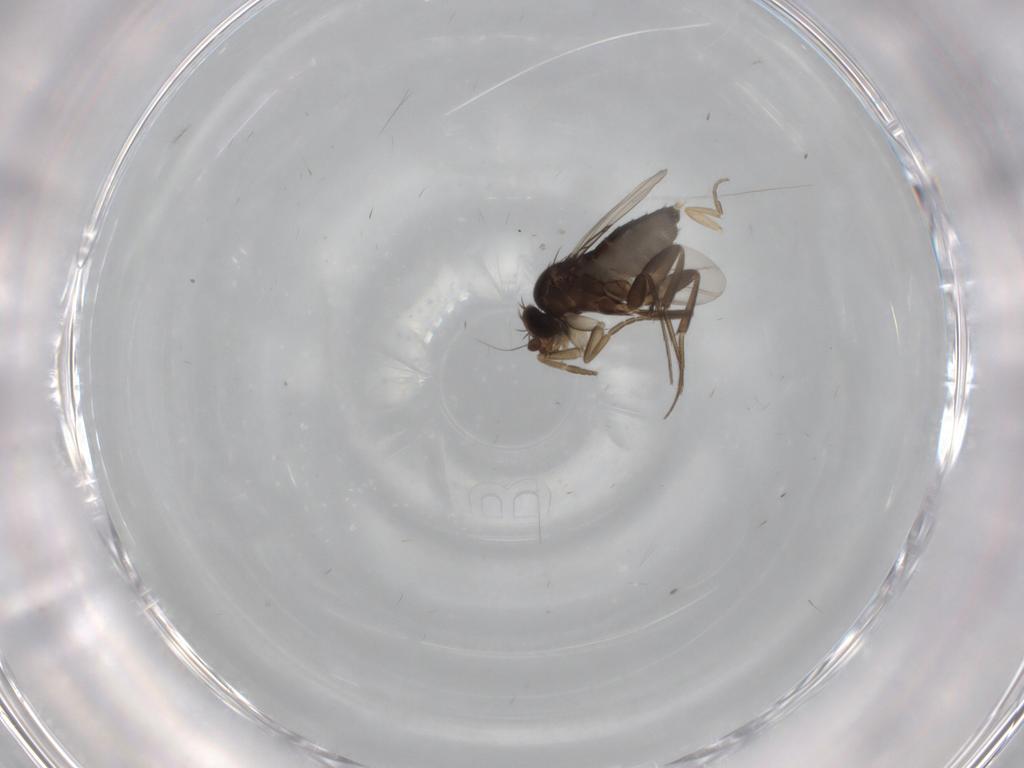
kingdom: Animalia
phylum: Arthropoda
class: Insecta
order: Diptera
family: Phoridae
